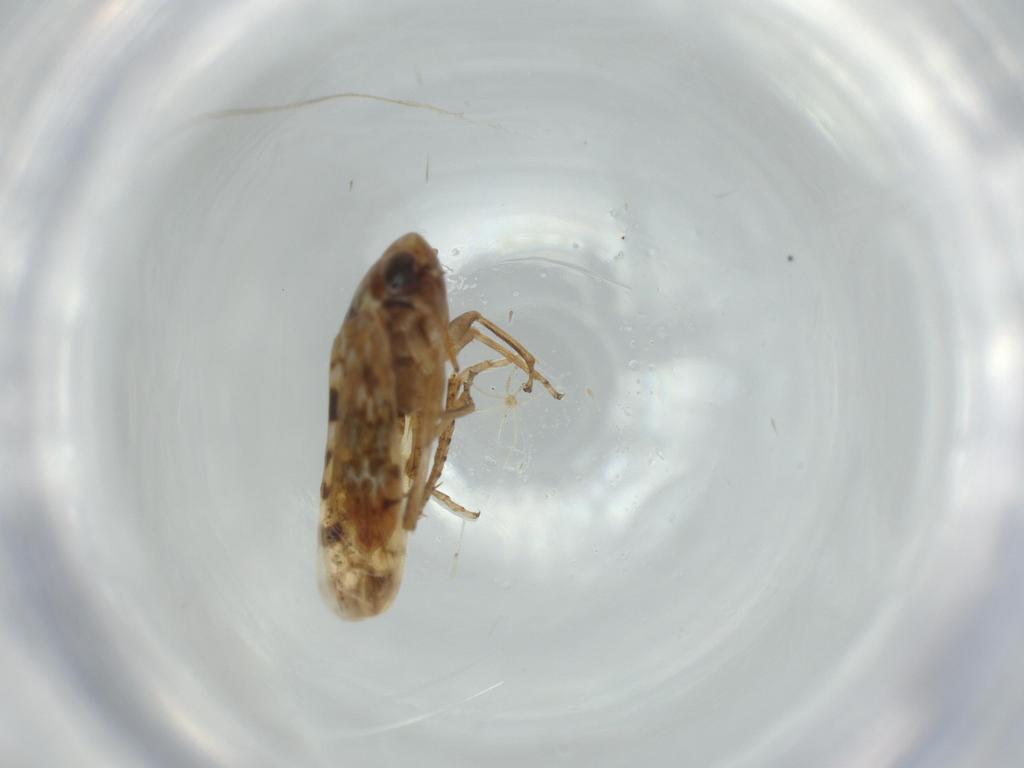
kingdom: Animalia
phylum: Arthropoda
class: Insecta
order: Hemiptera
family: Cicadellidae
